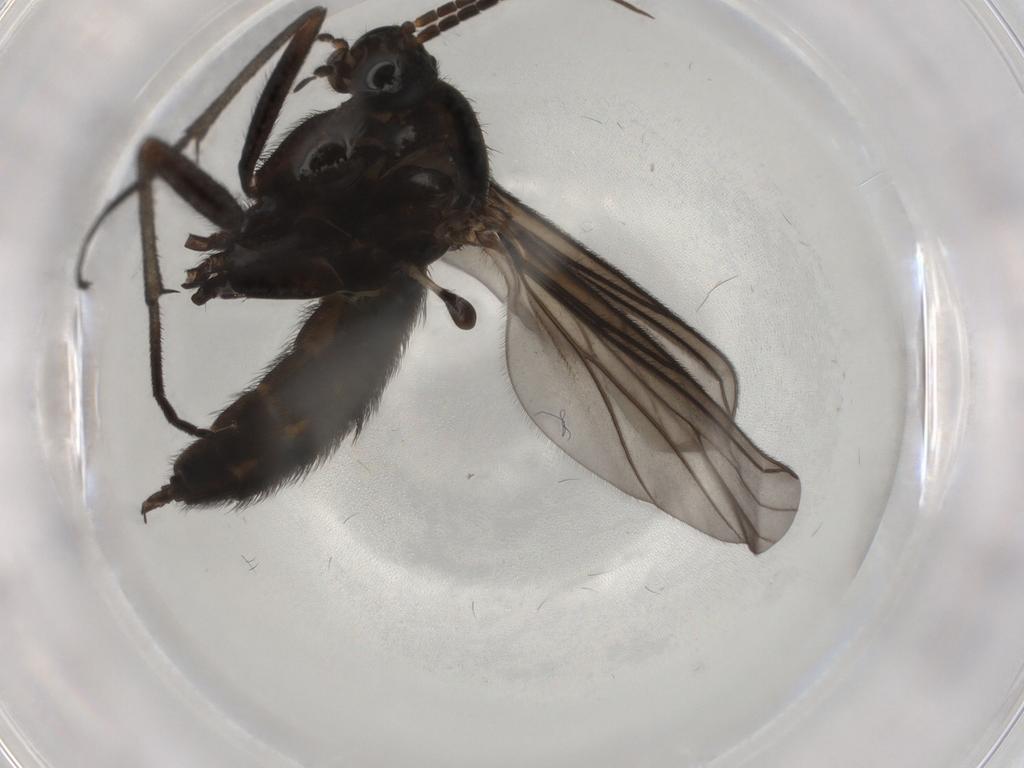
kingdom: Animalia
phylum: Arthropoda
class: Insecta
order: Diptera
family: Sciaridae
